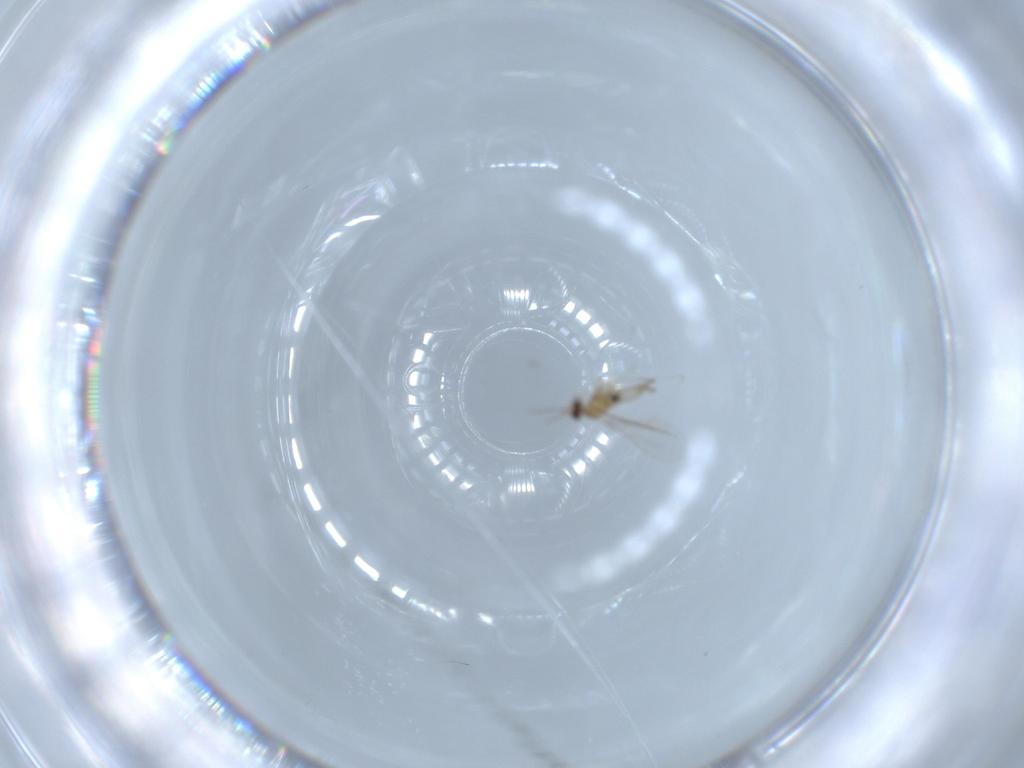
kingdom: Animalia
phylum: Arthropoda
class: Insecta
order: Diptera
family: Cecidomyiidae
